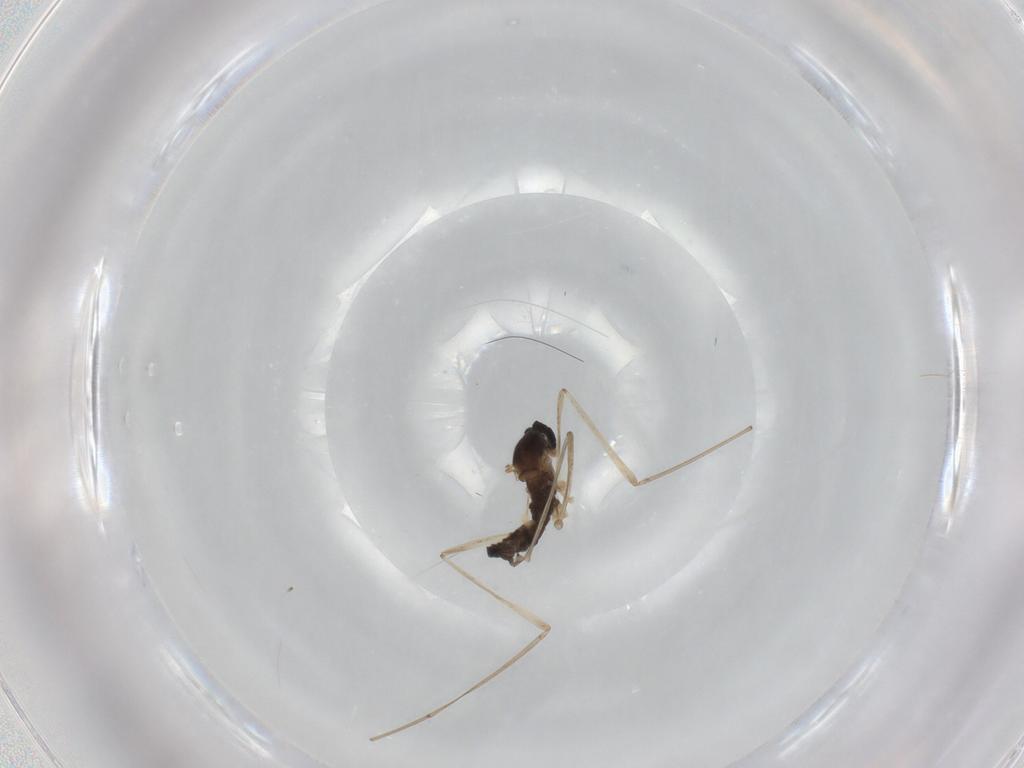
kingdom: Animalia
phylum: Arthropoda
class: Insecta
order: Diptera
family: Cecidomyiidae
